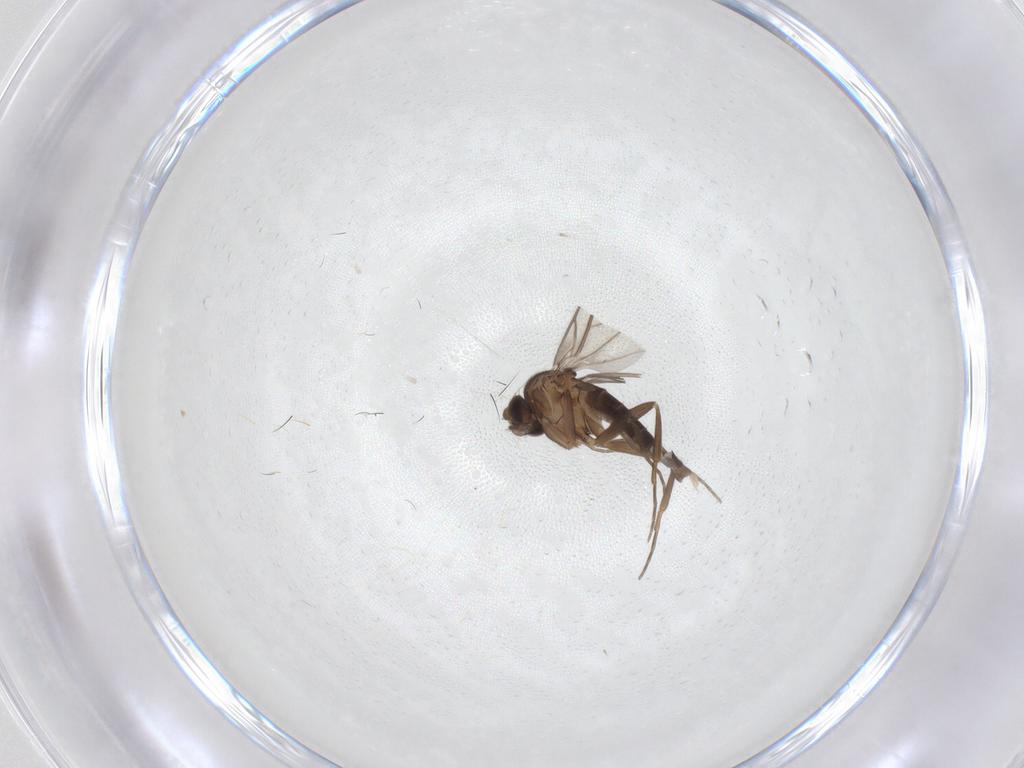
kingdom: Animalia
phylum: Arthropoda
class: Insecta
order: Diptera
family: Phoridae
